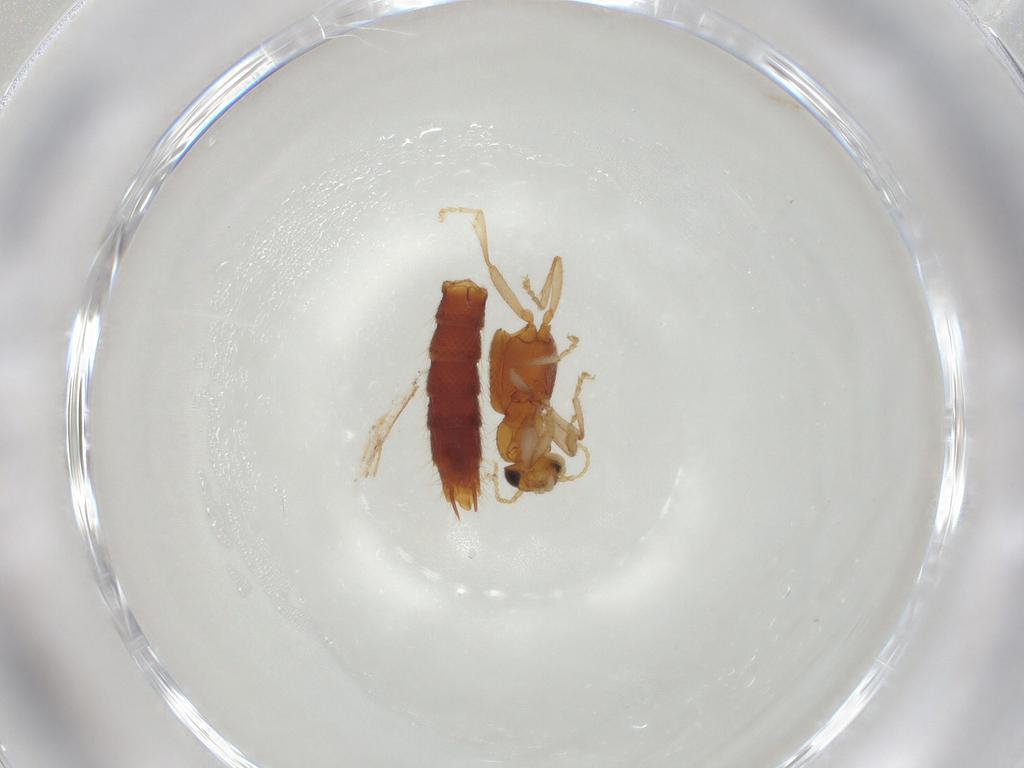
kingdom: Animalia
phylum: Arthropoda
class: Insecta
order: Coleoptera
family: Staphylinidae
